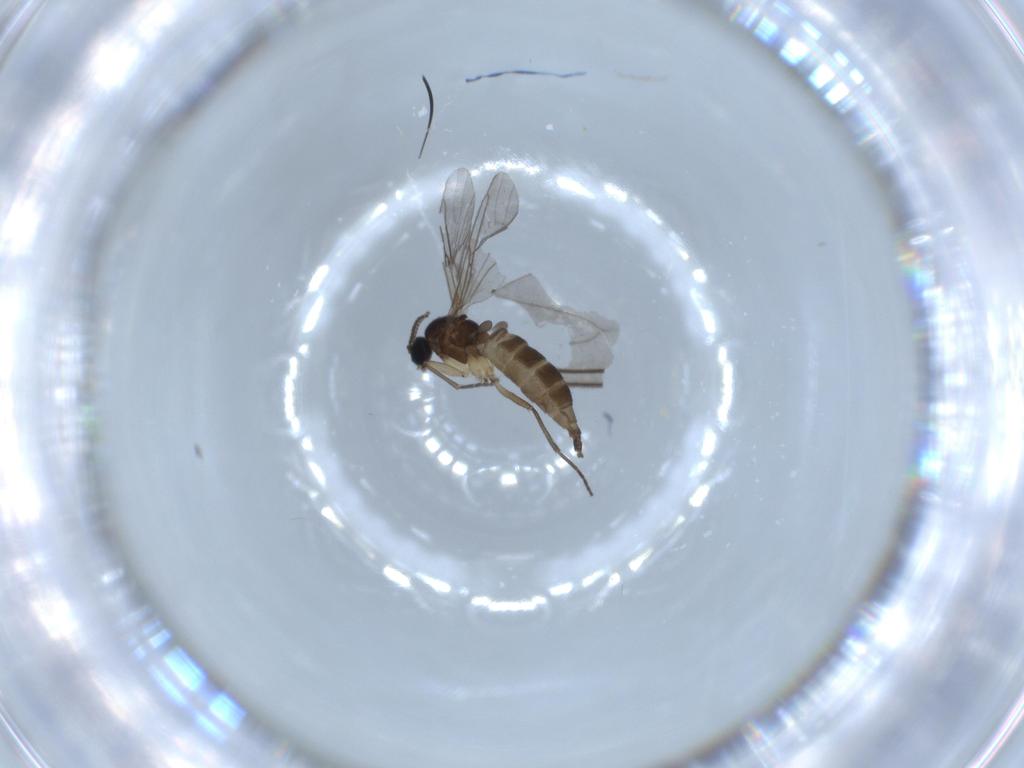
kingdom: Animalia
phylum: Arthropoda
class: Insecta
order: Diptera
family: Sciaridae
